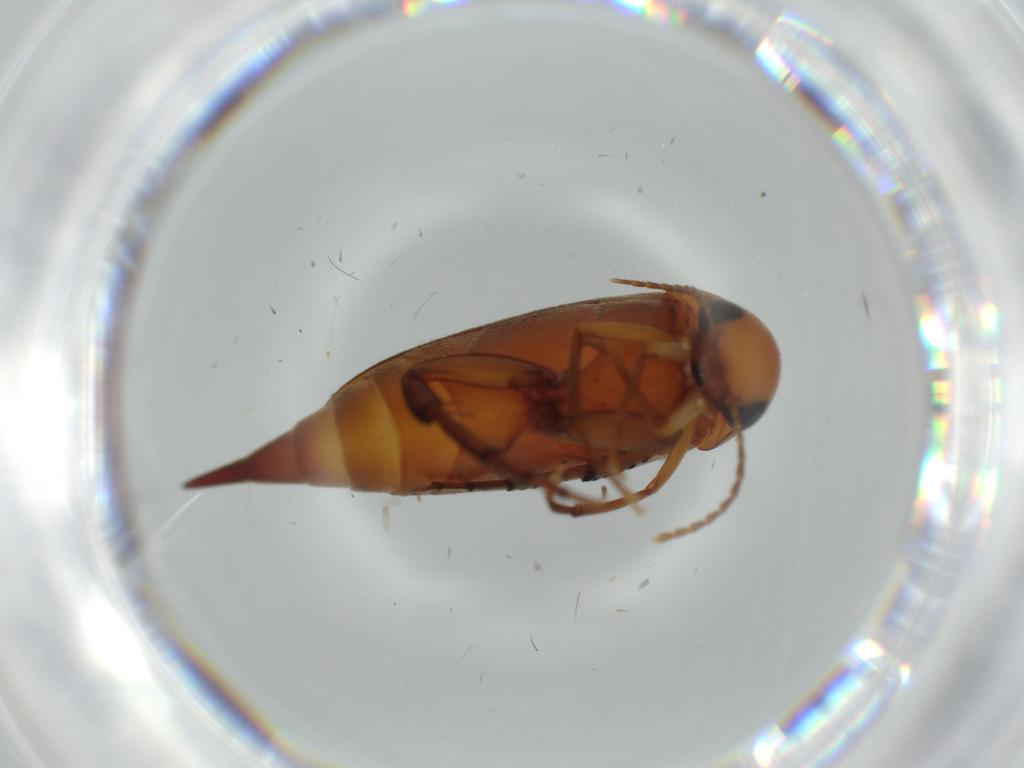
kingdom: Animalia
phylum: Arthropoda
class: Insecta
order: Coleoptera
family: Mordellidae
